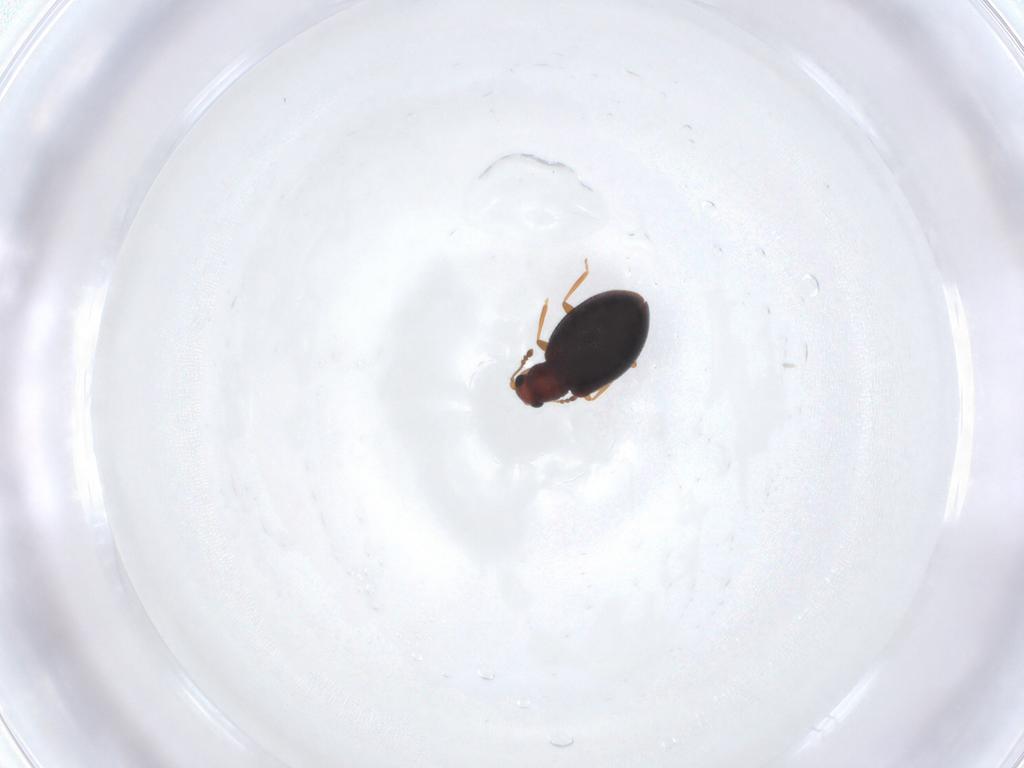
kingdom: Animalia
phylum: Arthropoda
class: Insecta
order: Coleoptera
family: Latridiidae
